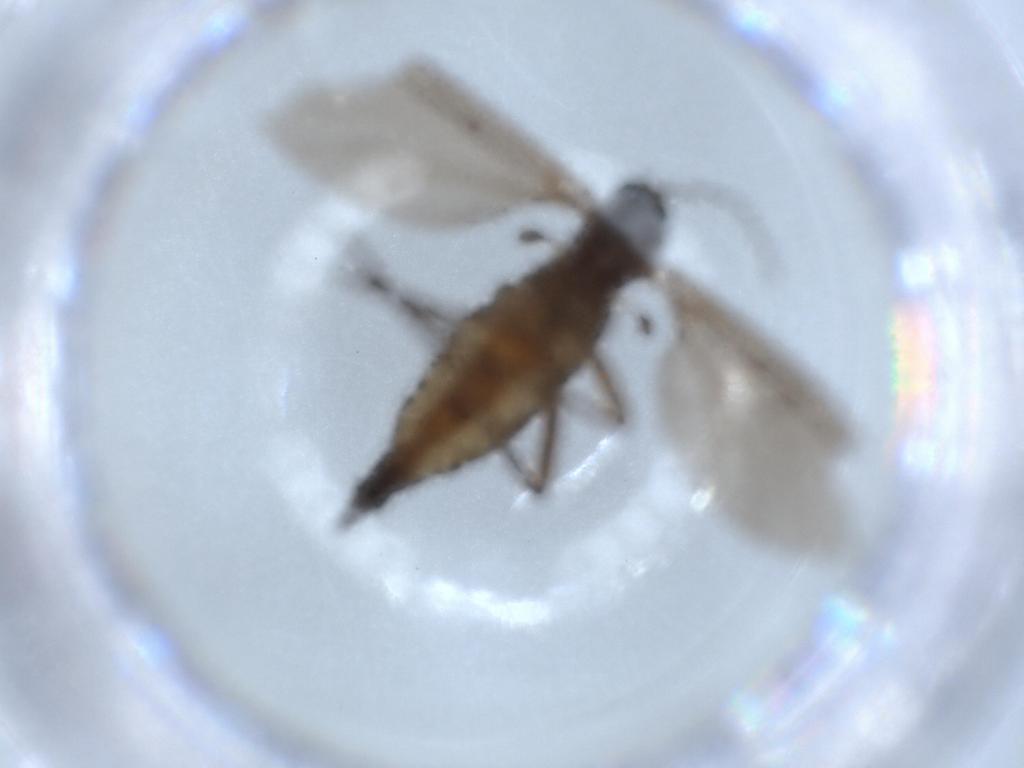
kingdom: Animalia
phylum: Arthropoda
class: Insecta
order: Diptera
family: Sciaridae
